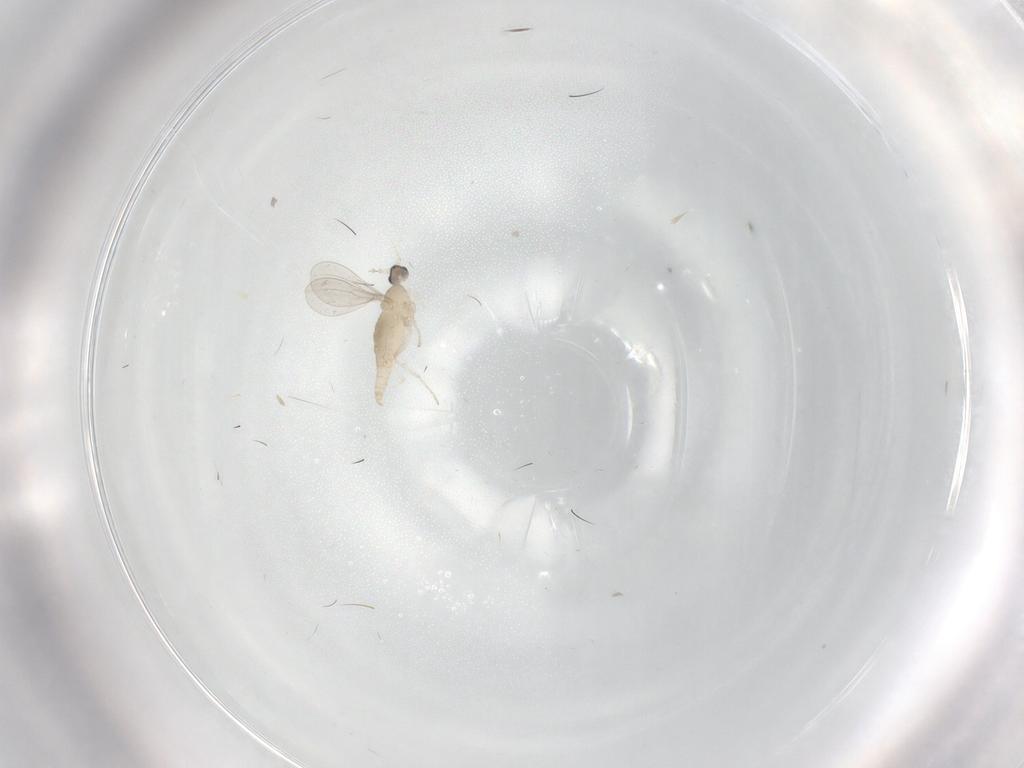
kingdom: Animalia
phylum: Arthropoda
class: Insecta
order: Diptera
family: Cecidomyiidae
